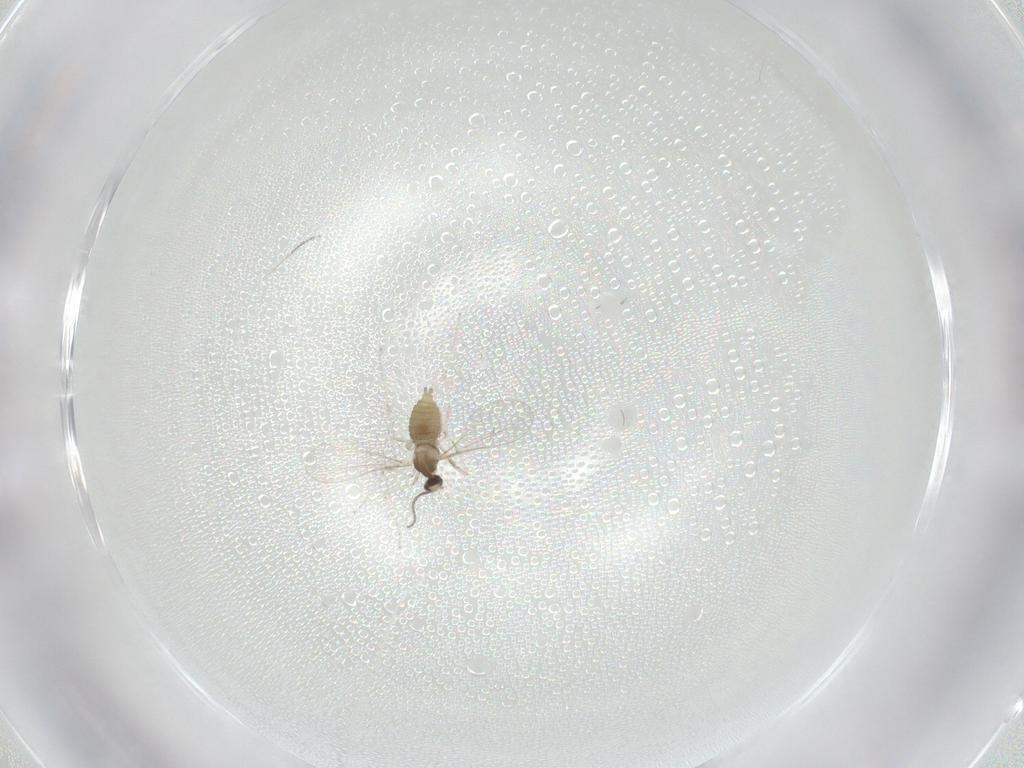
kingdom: Animalia
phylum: Arthropoda
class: Insecta
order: Diptera
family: Cecidomyiidae
